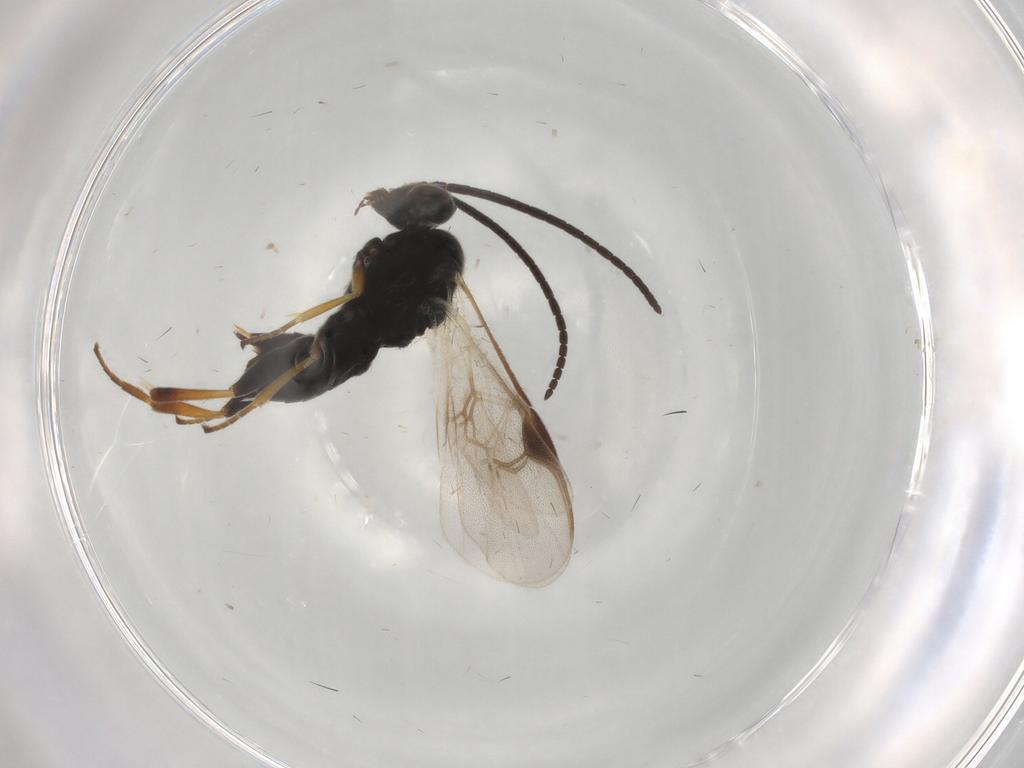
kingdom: Animalia
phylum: Arthropoda
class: Insecta
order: Hymenoptera
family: Braconidae
